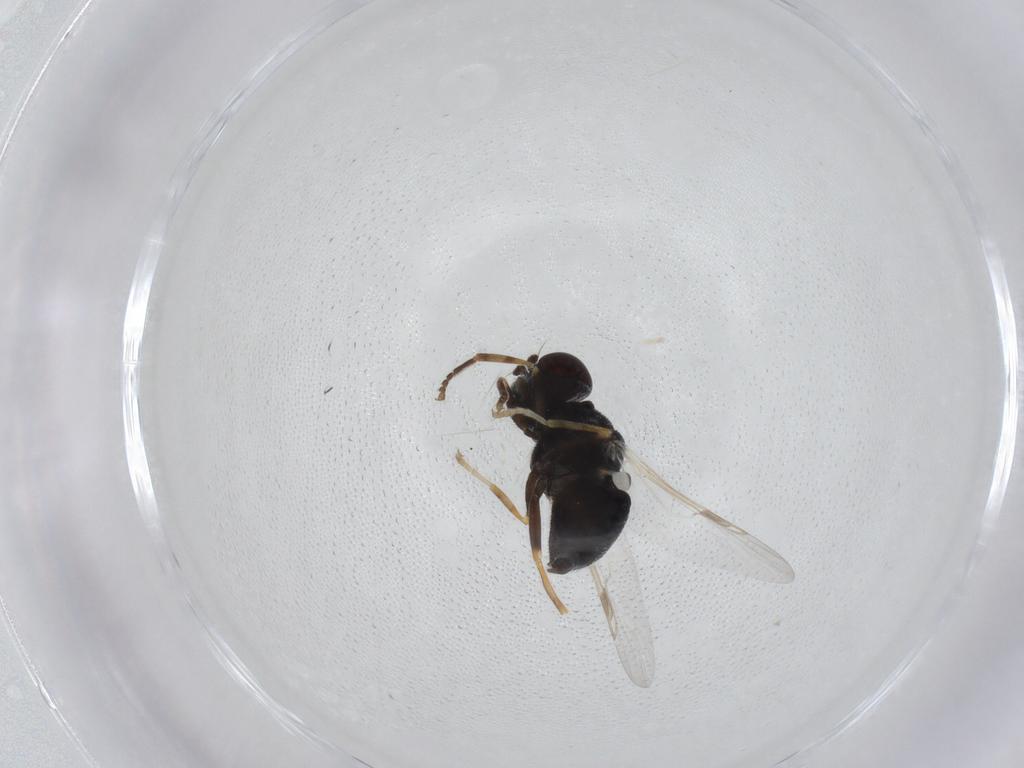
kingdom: Animalia
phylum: Arthropoda
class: Insecta
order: Diptera
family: Stratiomyidae
